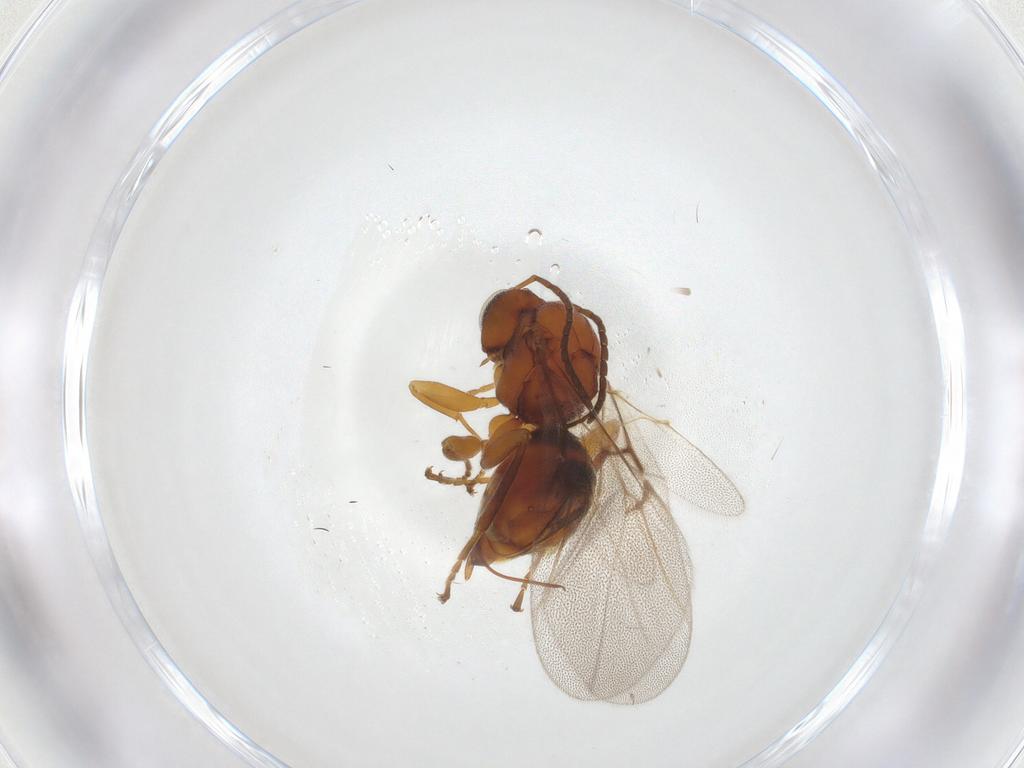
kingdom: Animalia
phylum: Arthropoda
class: Insecta
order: Hymenoptera
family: Cynipidae
